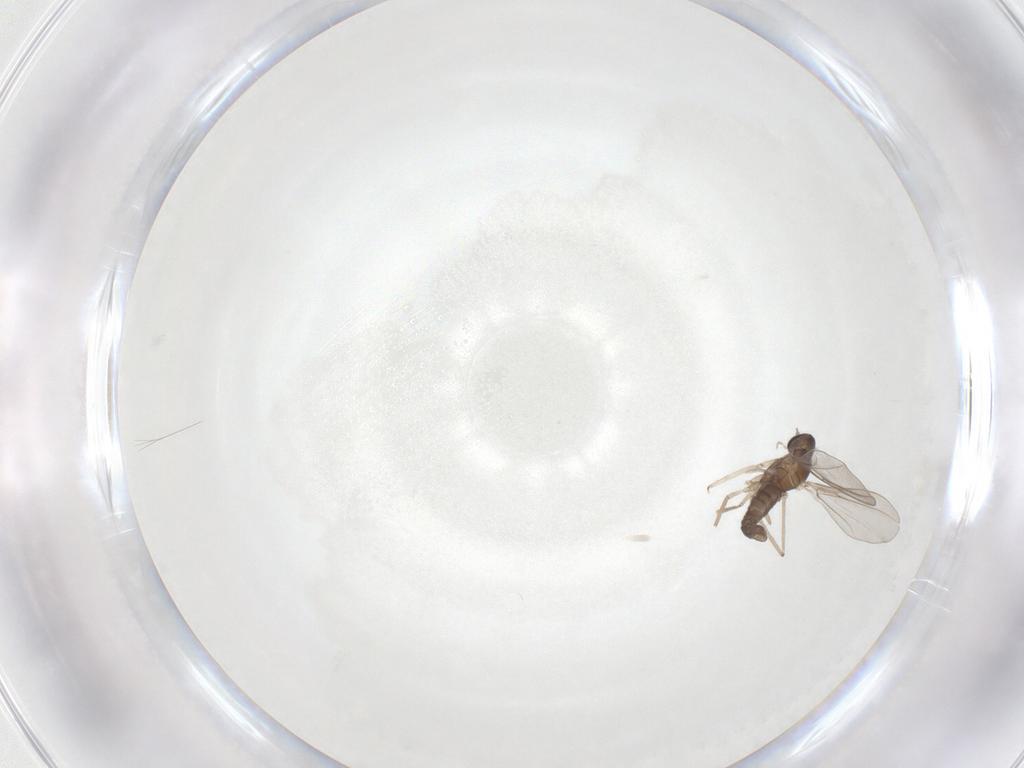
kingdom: Animalia
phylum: Arthropoda
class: Insecta
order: Diptera
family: Cecidomyiidae
